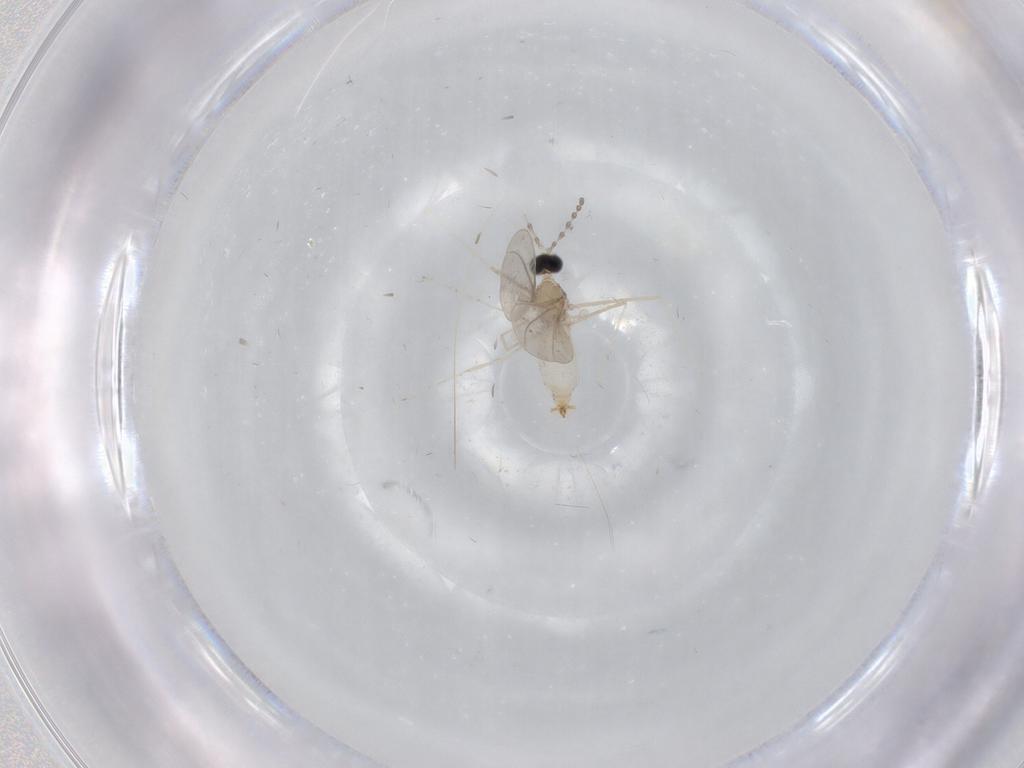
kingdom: Animalia
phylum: Arthropoda
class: Insecta
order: Diptera
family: Cecidomyiidae
